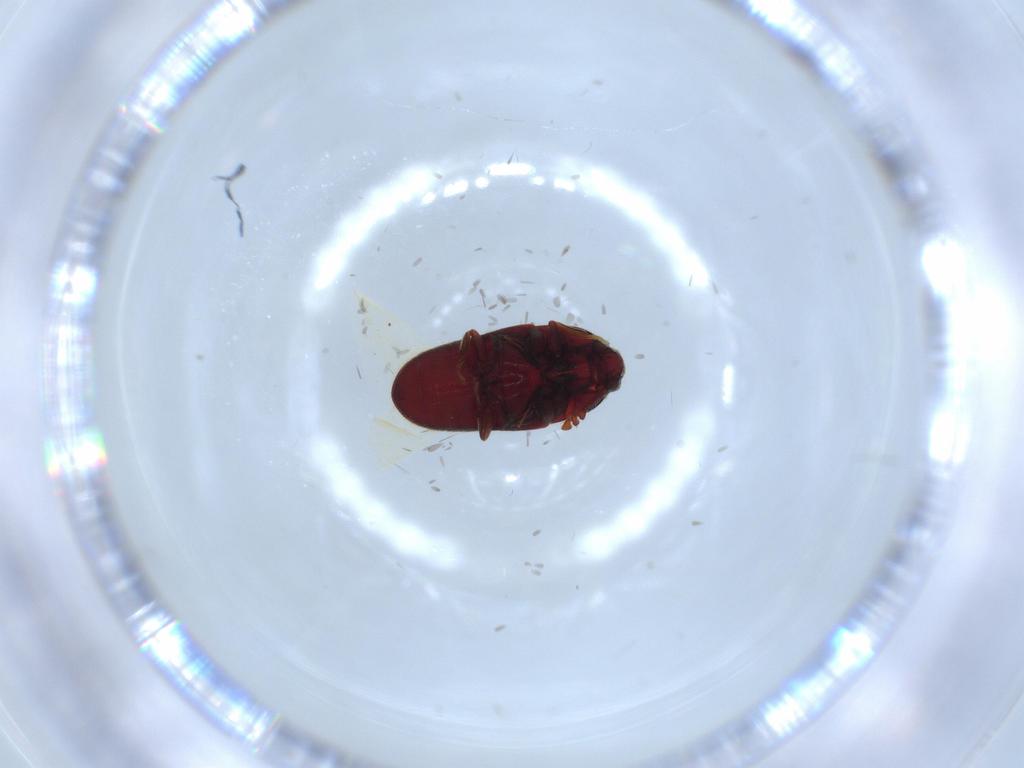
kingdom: Animalia
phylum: Arthropoda
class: Insecta
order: Coleoptera
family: Throscidae
